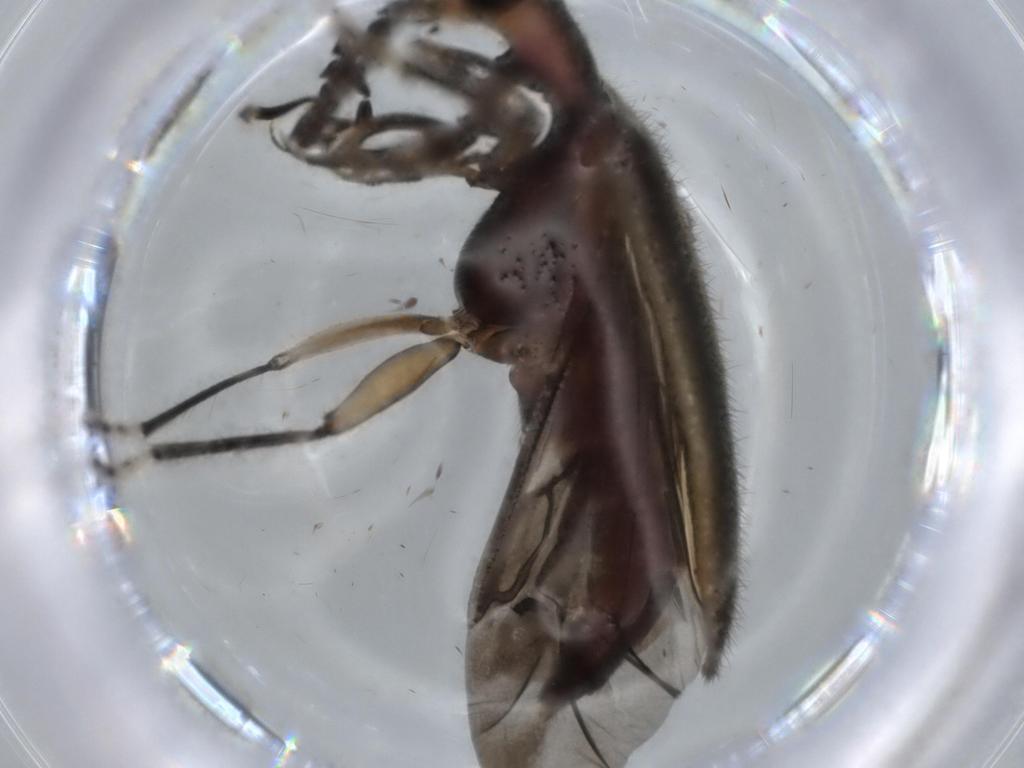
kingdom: Animalia
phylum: Arthropoda
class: Insecta
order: Coleoptera
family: Cleridae
